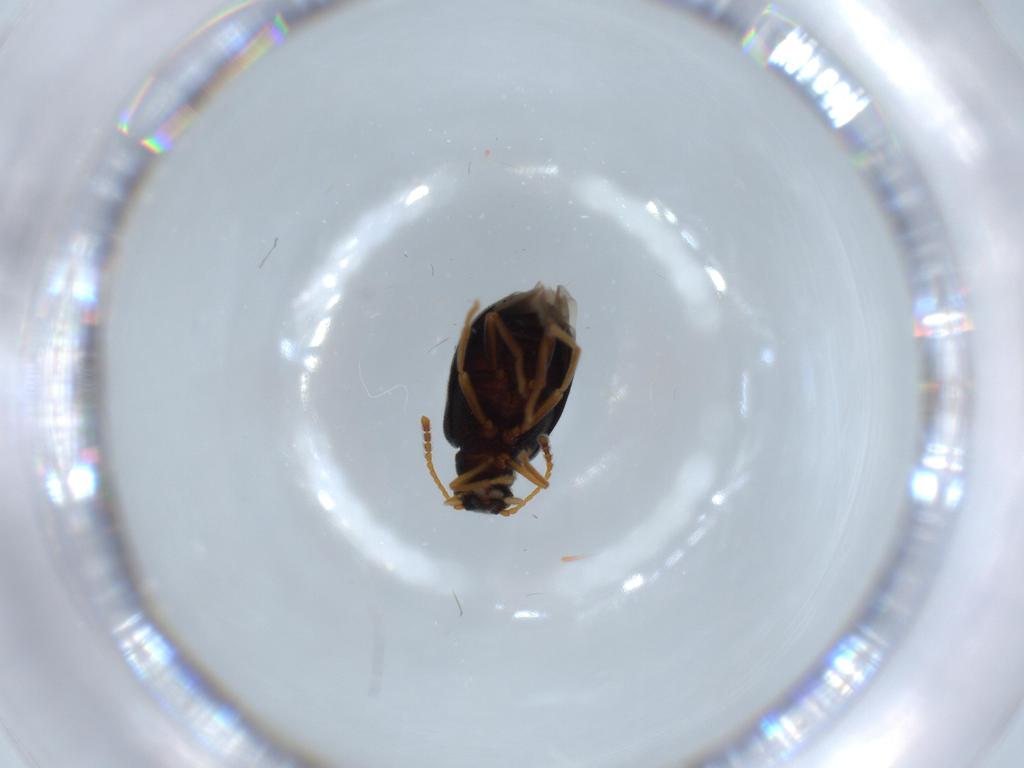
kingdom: Animalia
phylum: Arthropoda
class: Insecta
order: Coleoptera
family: Aderidae
